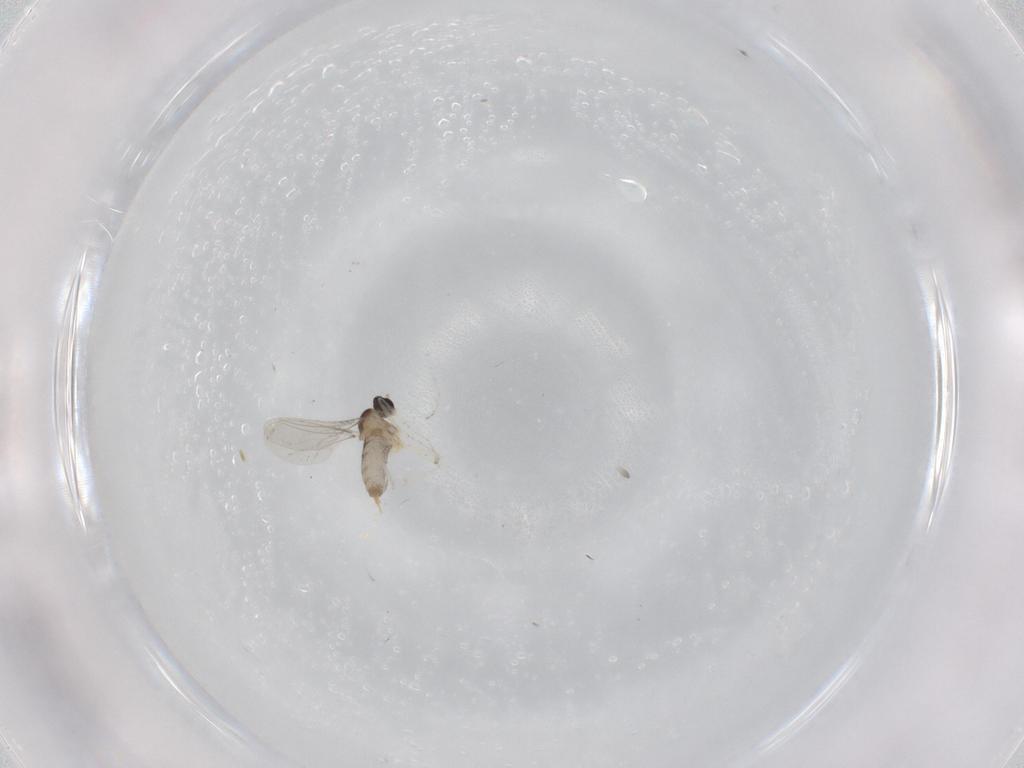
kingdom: Animalia
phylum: Arthropoda
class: Insecta
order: Diptera
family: Cecidomyiidae
